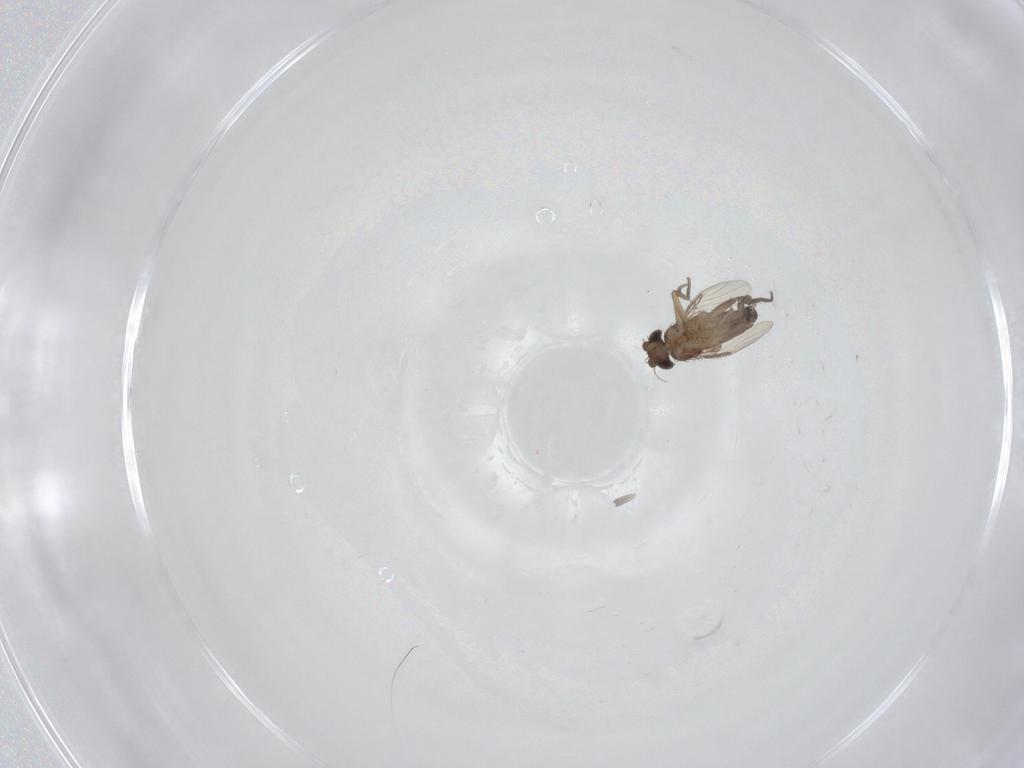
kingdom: Animalia
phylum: Arthropoda
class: Insecta
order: Diptera
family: Phoridae
